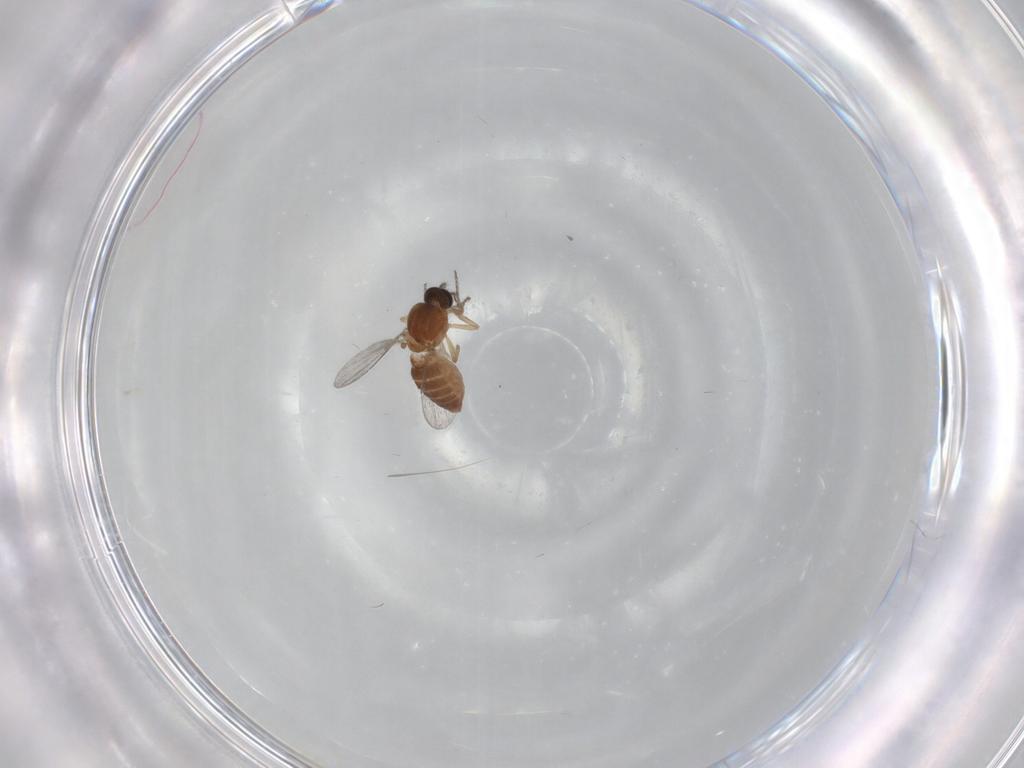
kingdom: Animalia
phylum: Arthropoda
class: Insecta
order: Diptera
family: Ceratopogonidae
